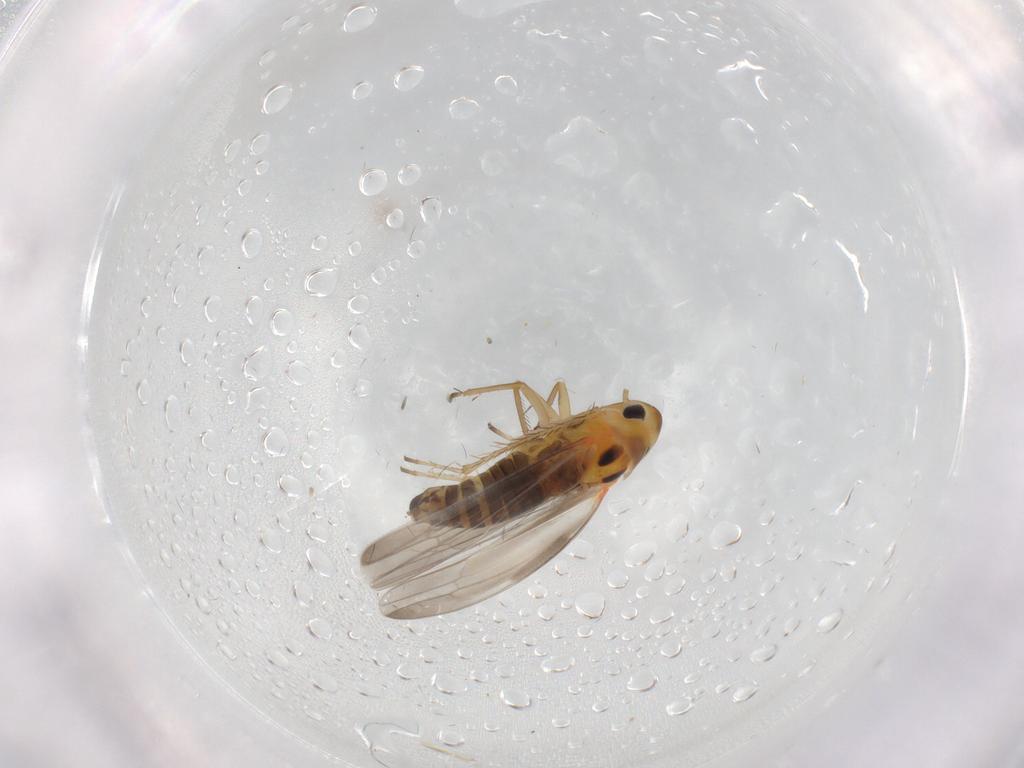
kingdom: Animalia
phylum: Arthropoda
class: Insecta
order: Hemiptera
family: Cicadellidae
